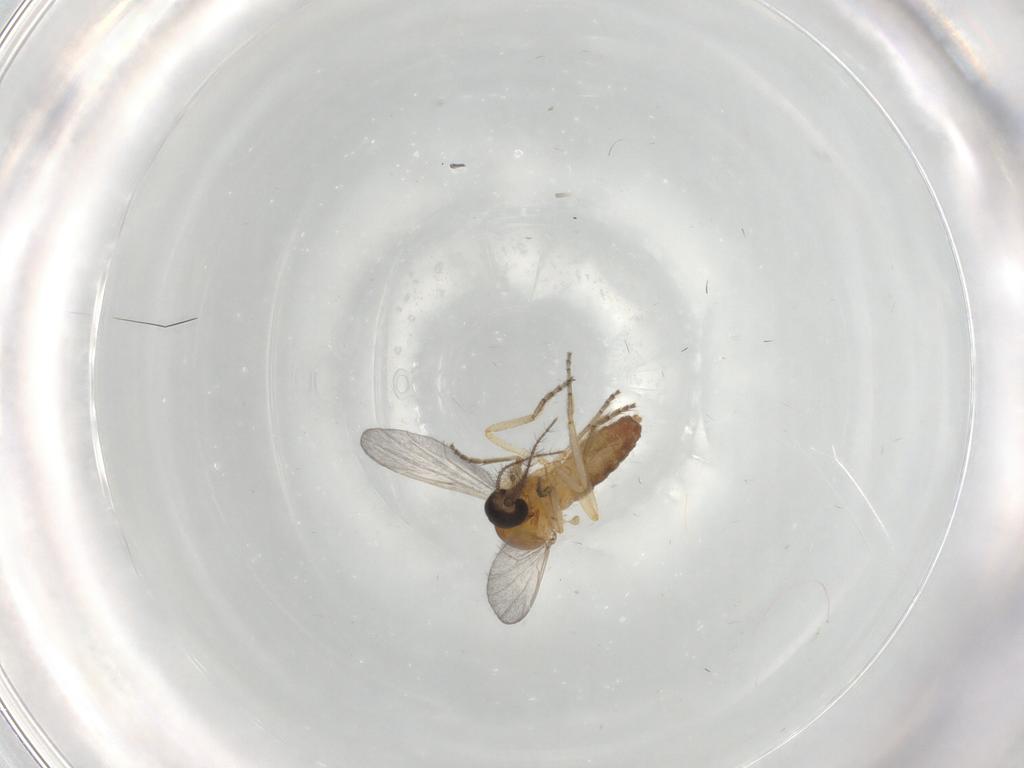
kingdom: Animalia
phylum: Arthropoda
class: Insecta
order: Diptera
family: Ceratopogonidae
